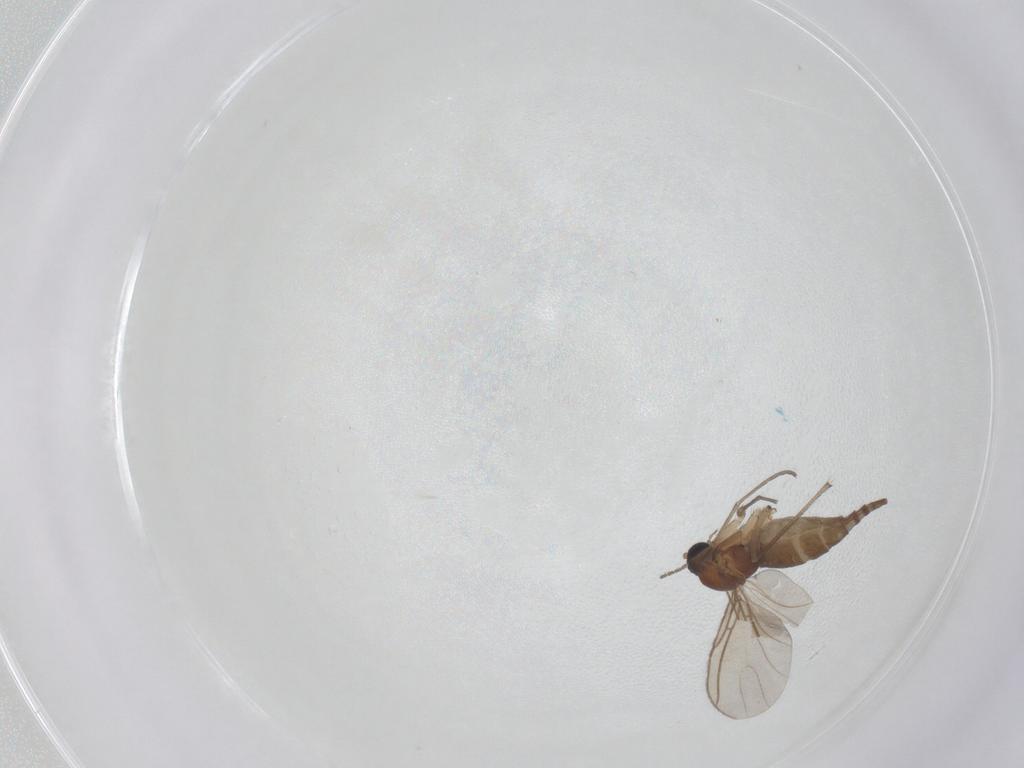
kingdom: Animalia
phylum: Arthropoda
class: Insecta
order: Diptera
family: Sciaridae
